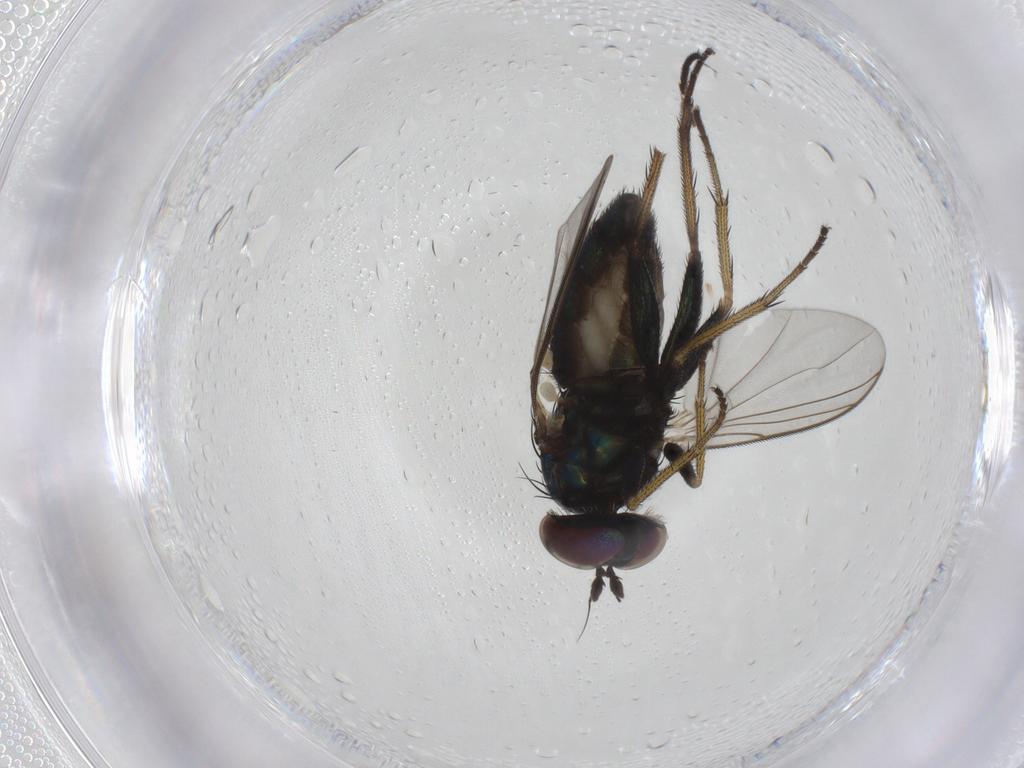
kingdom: Animalia
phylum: Arthropoda
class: Insecta
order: Diptera
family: Dolichopodidae
